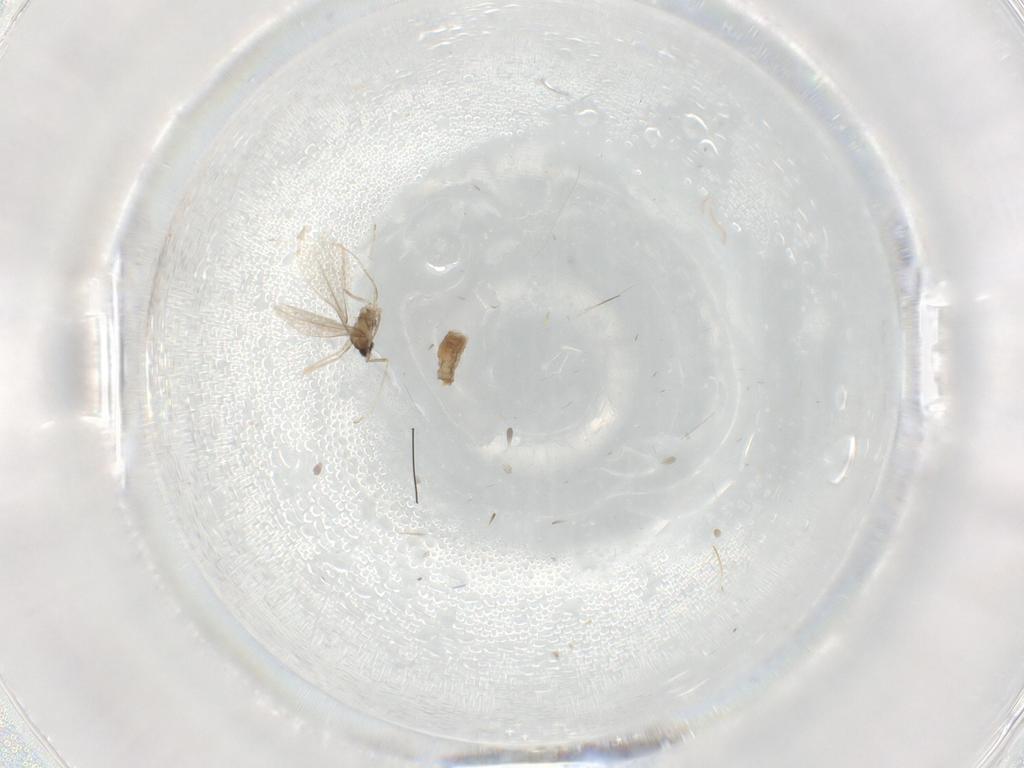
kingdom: Animalia
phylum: Arthropoda
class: Insecta
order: Diptera
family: Cecidomyiidae
